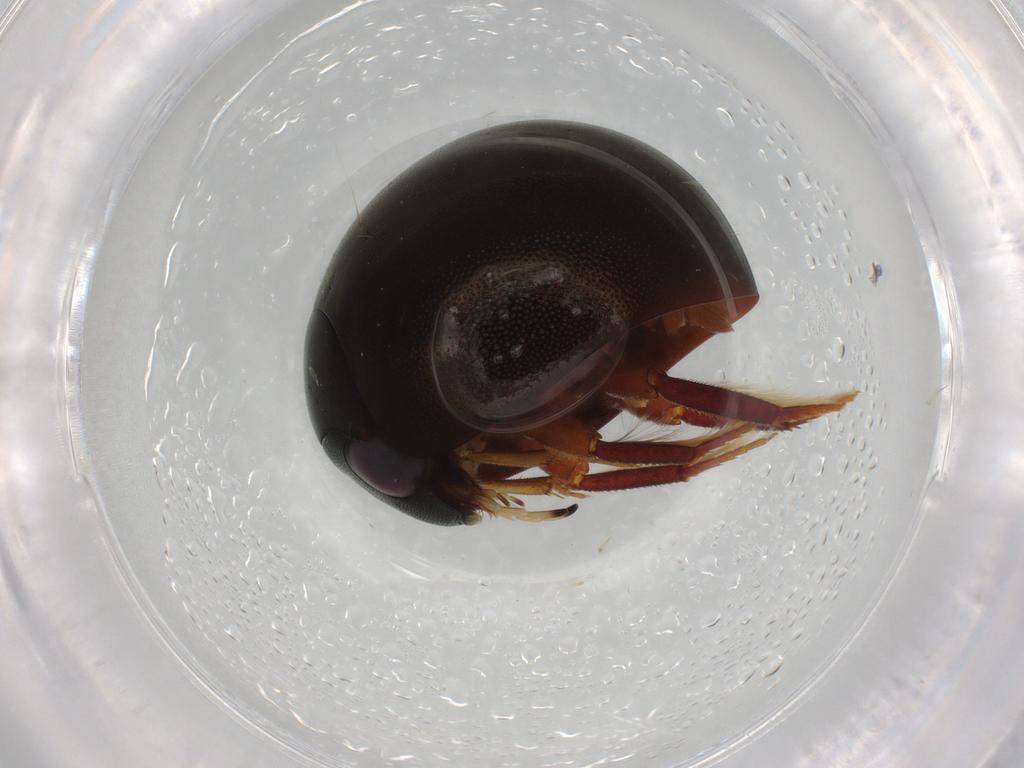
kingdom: Animalia
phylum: Arthropoda
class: Insecta
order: Coleoptera
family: Hydrophilidae
